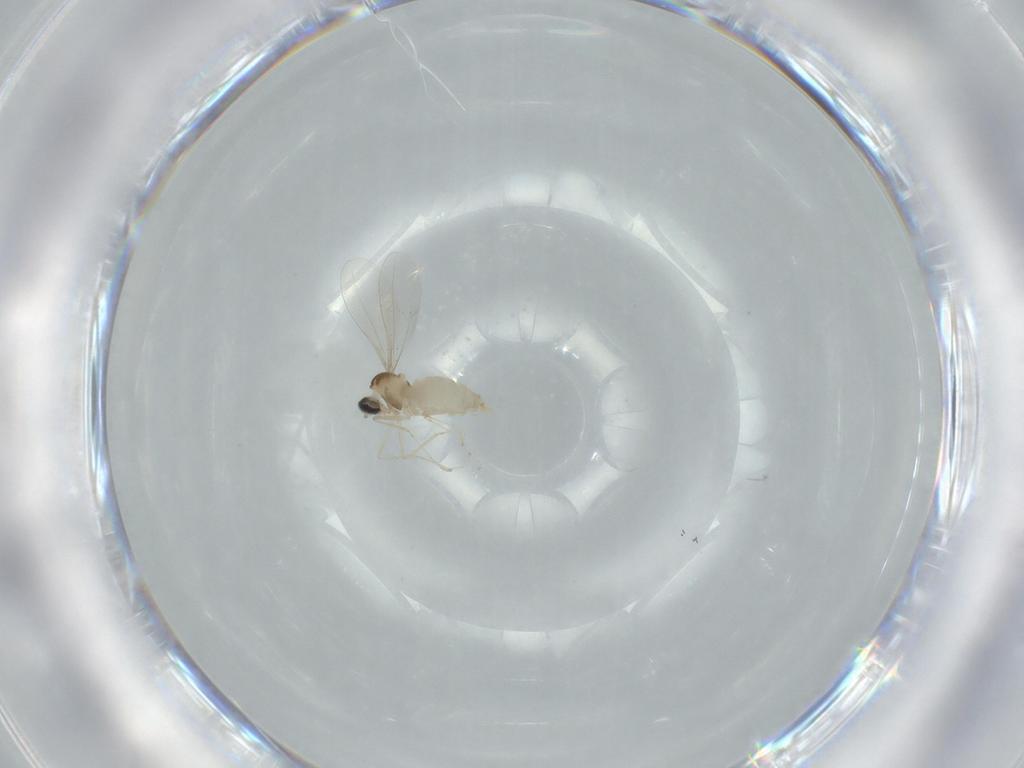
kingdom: Animalia
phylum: Arthropoda
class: Insecta
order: Diptera
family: Cecidomyiidae
